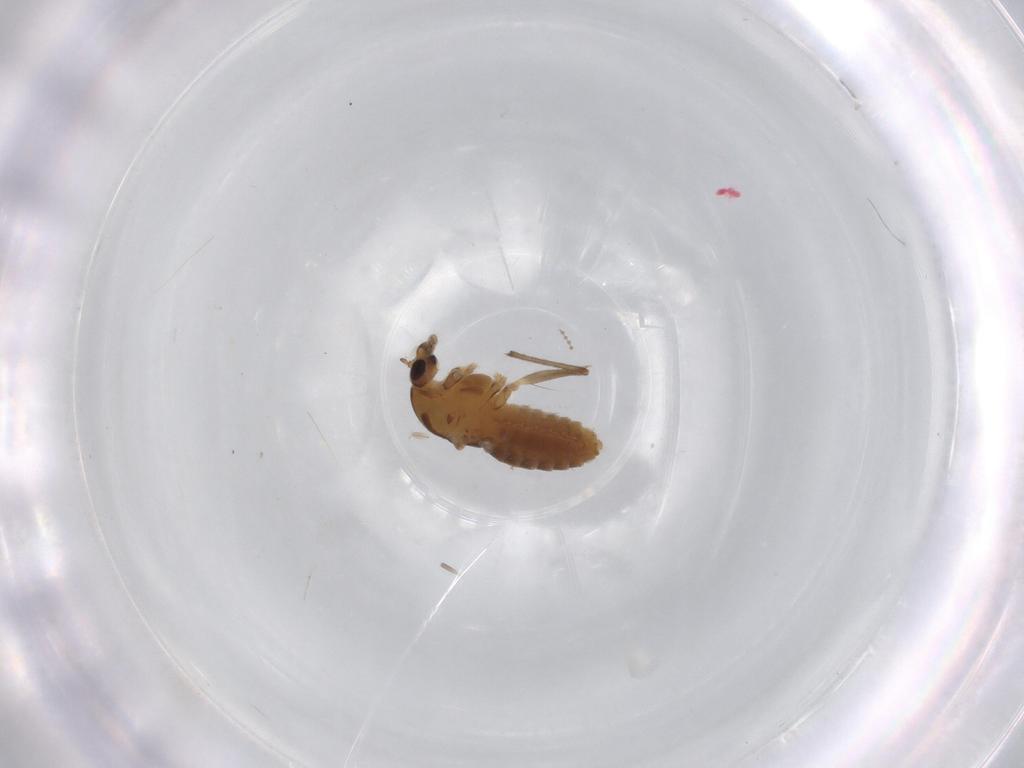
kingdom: Animalia
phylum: Arthropoda
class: Insecta
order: Diptera
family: Chironomidae
